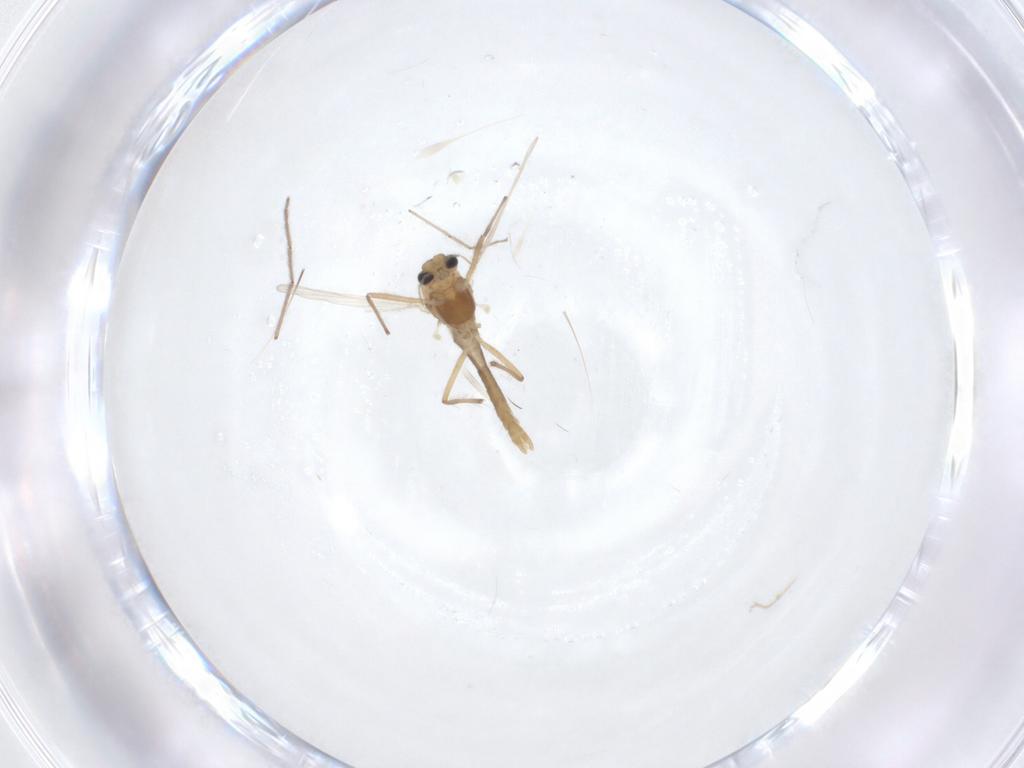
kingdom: Animalia
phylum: Arthropoda
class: Insecta
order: Diptera
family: Chironomidae
